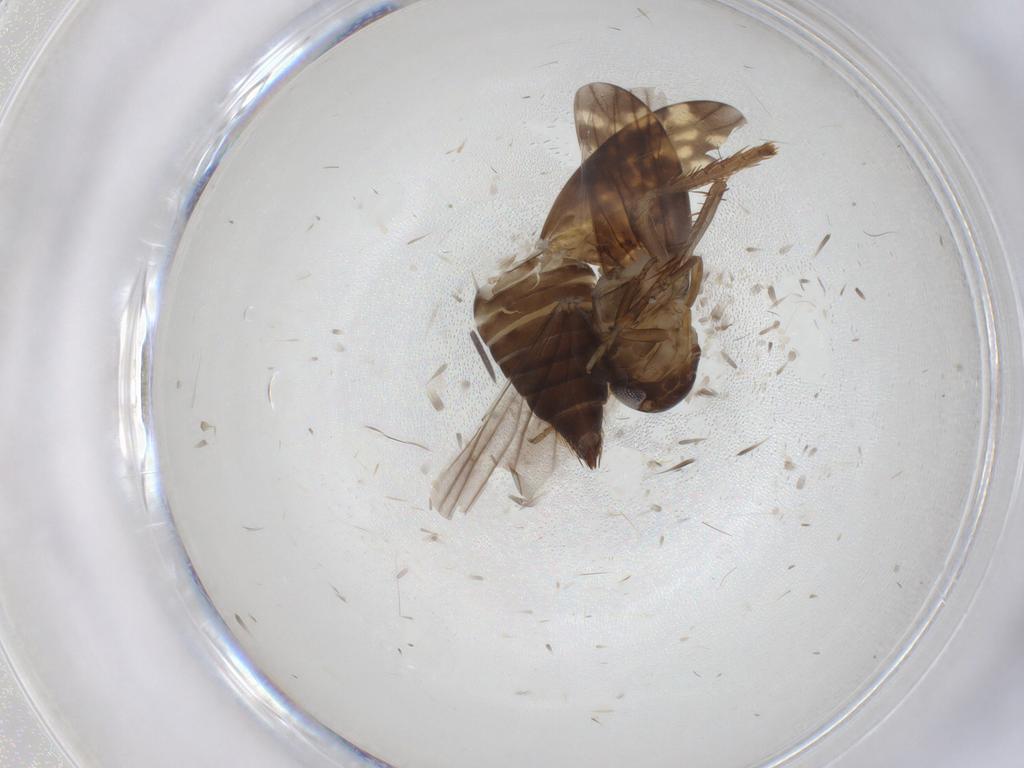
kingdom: Animalia
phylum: Arthropoda
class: Insecta
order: Hemiptera
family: Cicadellidae
